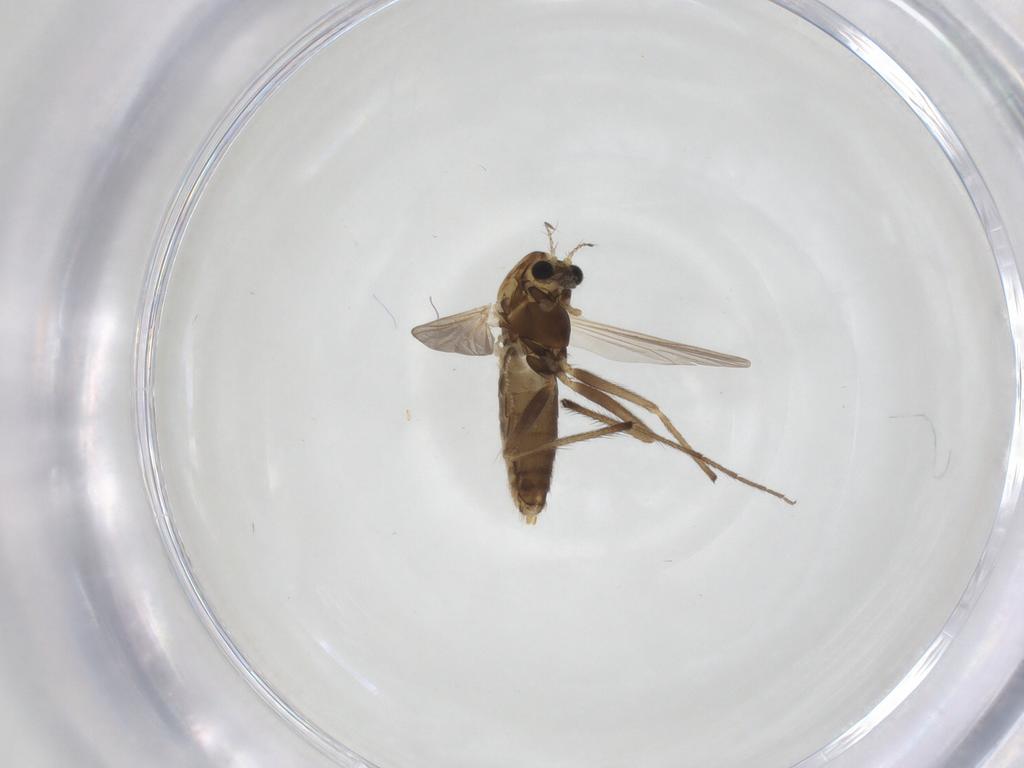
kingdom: Animalia
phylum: Arthropoda
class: Insecta
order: Diptera
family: Chironomidae
